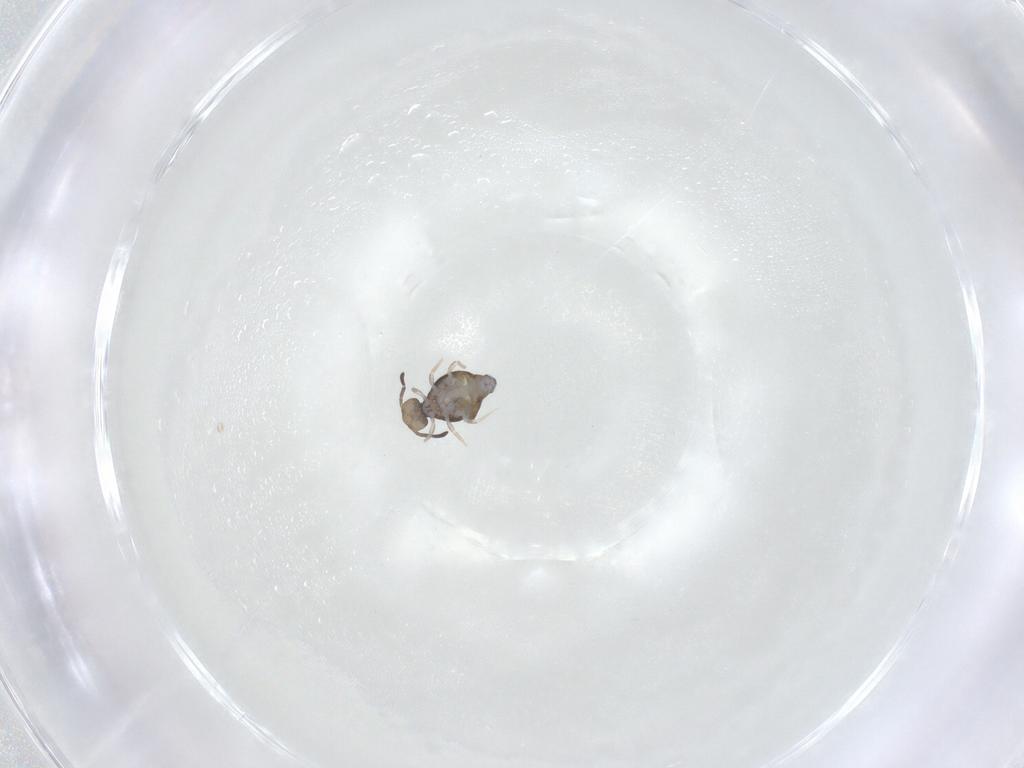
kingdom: Animalia
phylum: Arthropoda
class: Collembola
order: Symphypleona
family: Katiannidae
